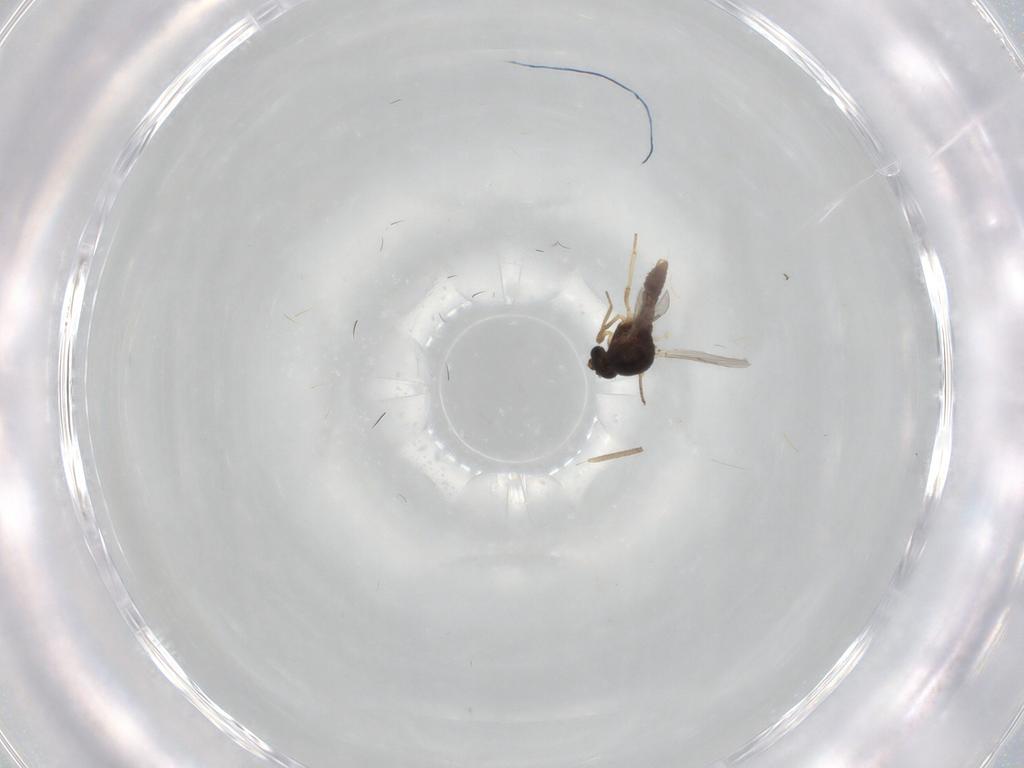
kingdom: Animalia
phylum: Arthropoda
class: Insecta
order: Diptera
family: Ceratopogonidae
